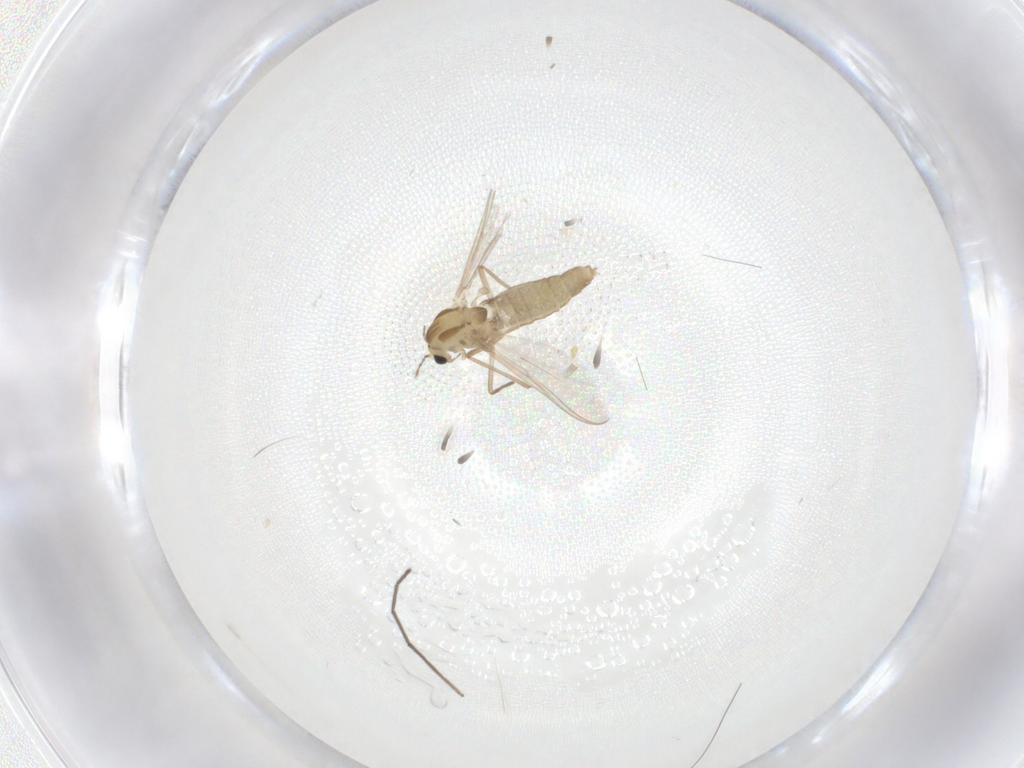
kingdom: Animalia
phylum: Arthropoda
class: Insecta
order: Diptera
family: Chironomidae
